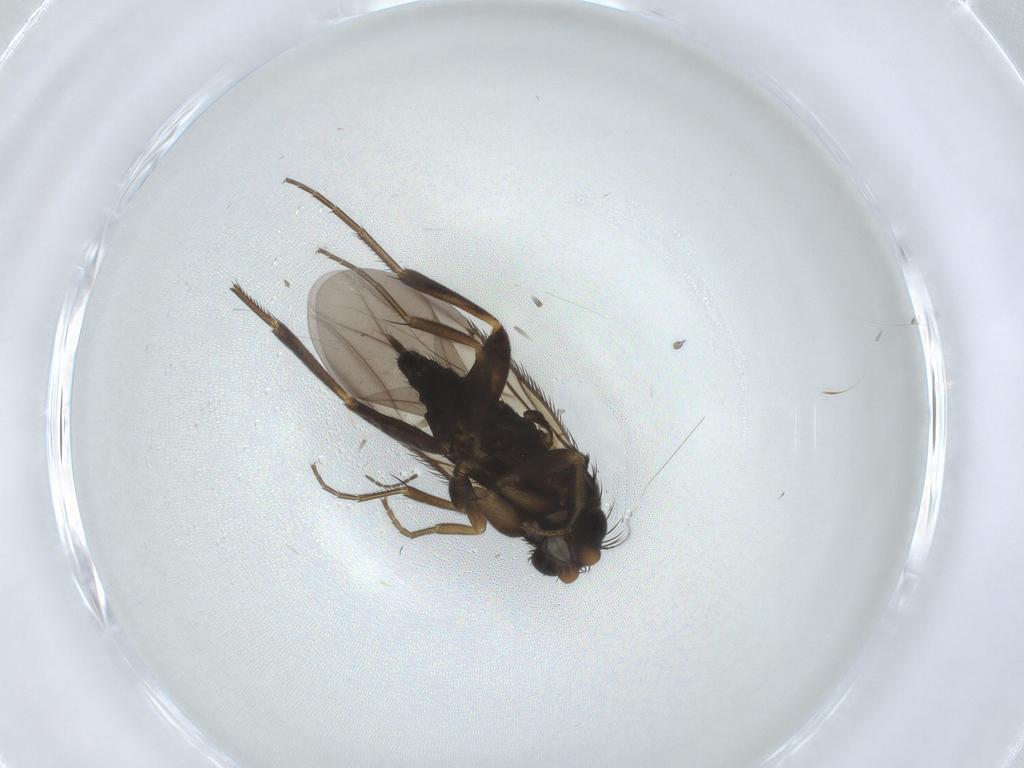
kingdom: Animalia
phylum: Arthropoda
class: Insecta
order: Diptera
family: Phoridae
